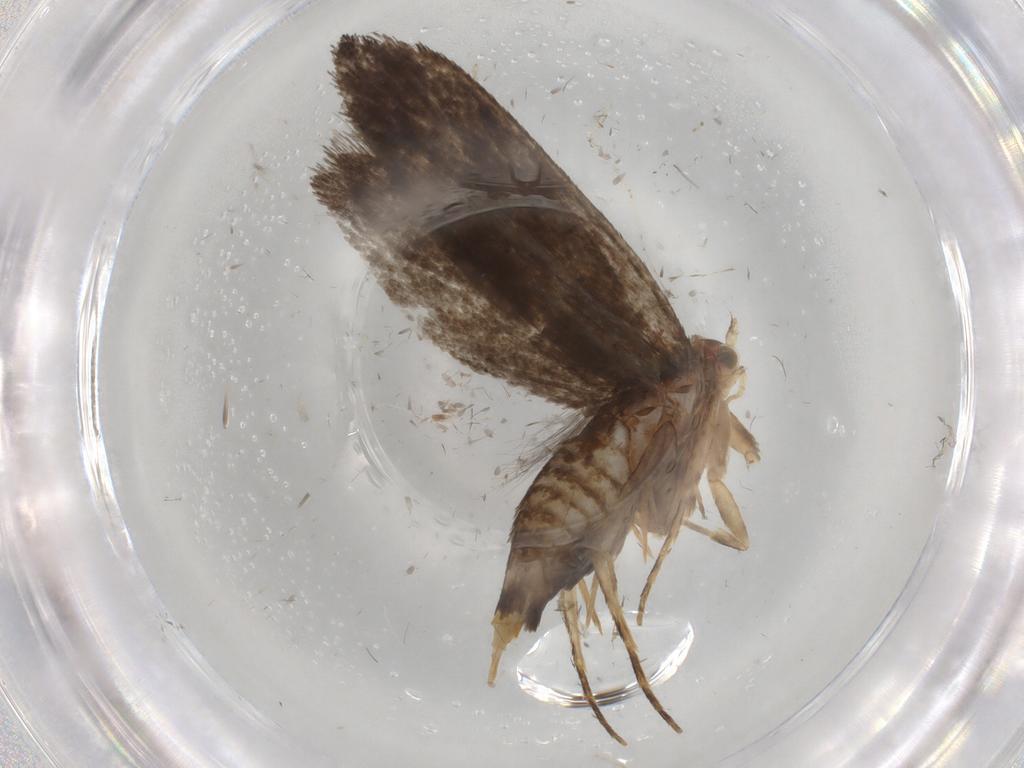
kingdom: Animalia
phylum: Arthropoda
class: Insecta
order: Lepidoptera
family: Tineidae
